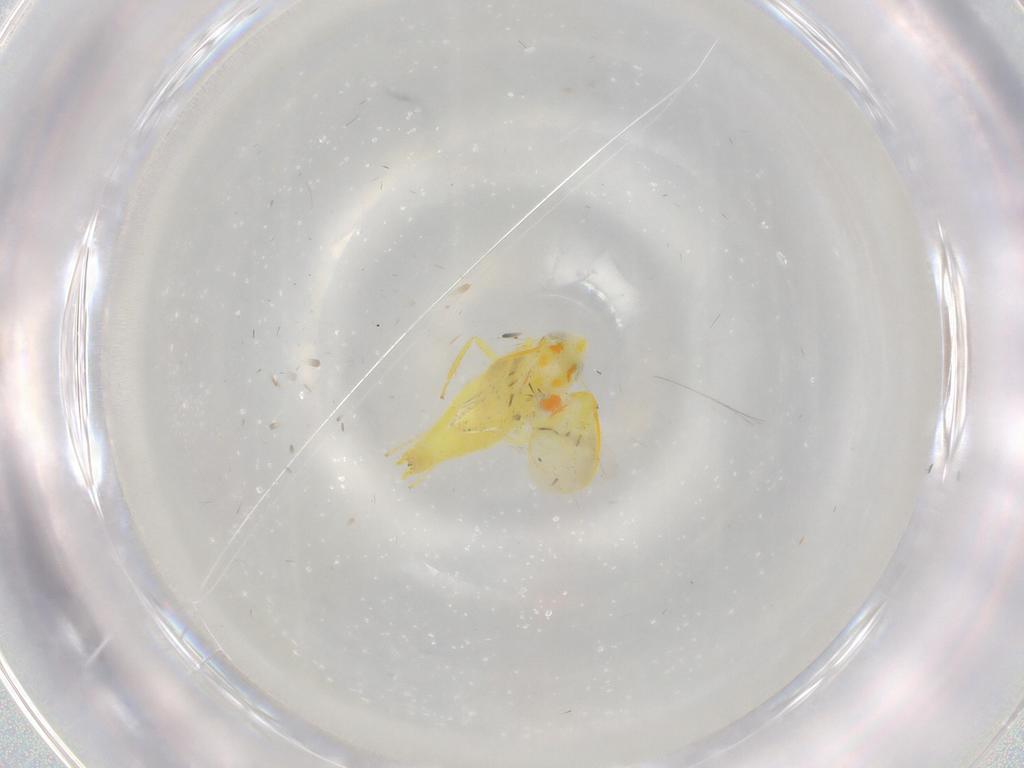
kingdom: Animalia
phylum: Arthropoda
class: Insecta
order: Hemiptera
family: Cicadellidae
